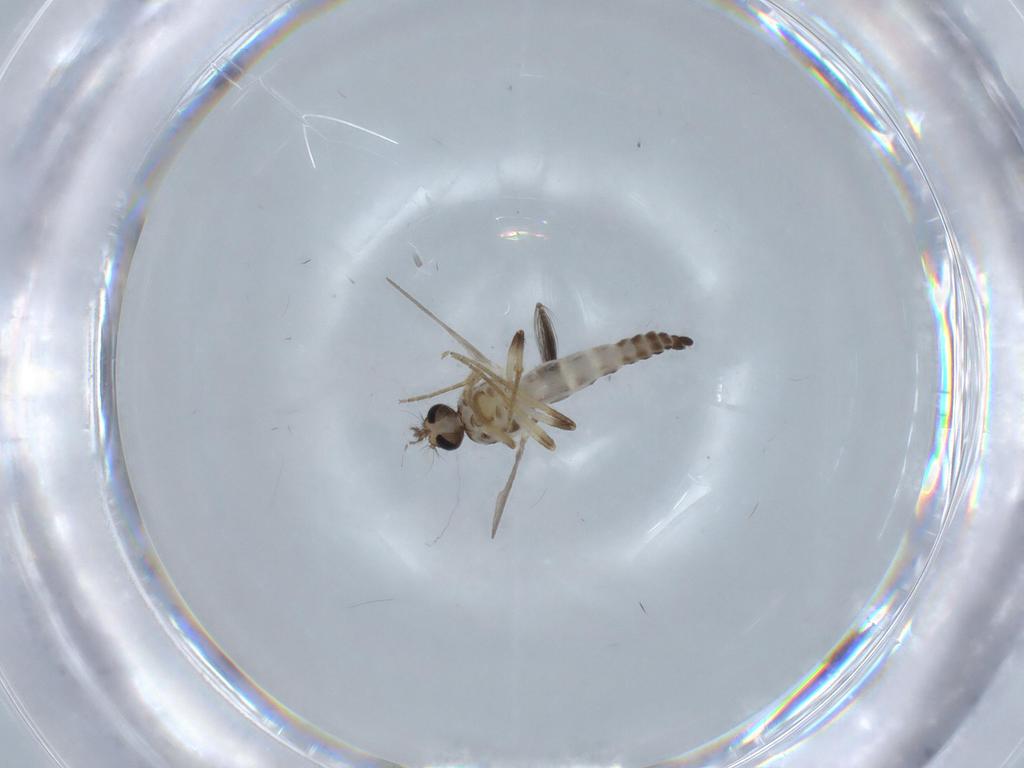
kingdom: Animalia
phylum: Arthropoda
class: Insecta
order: Diptera
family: Ceratopogonidae
